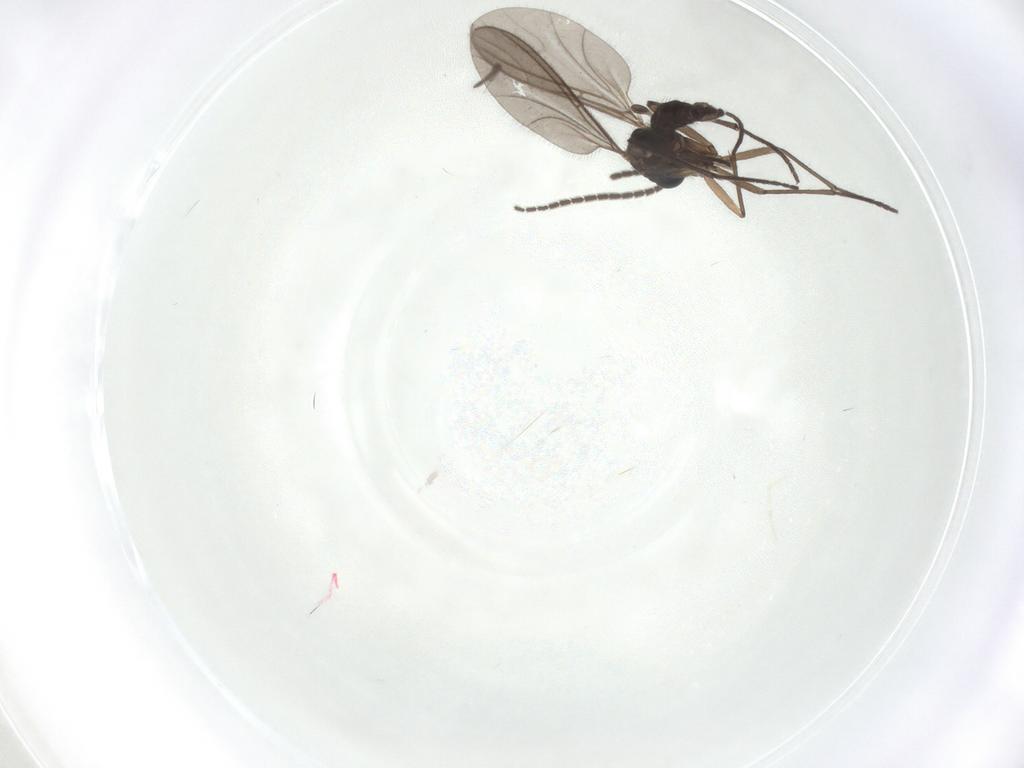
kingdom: Animalia
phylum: Arthropoda
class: Insecta
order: Diptera
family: Sciaridae
